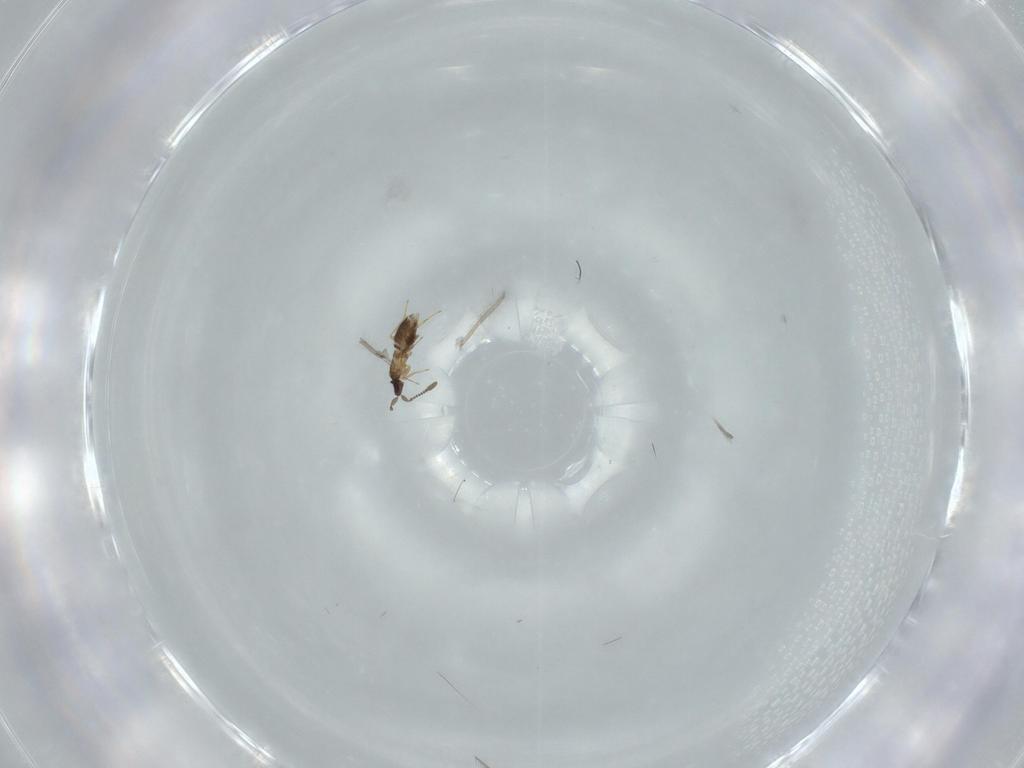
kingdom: Animalia
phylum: Arthropoda
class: Insecta
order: Hymenoptera
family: Mymaridae
